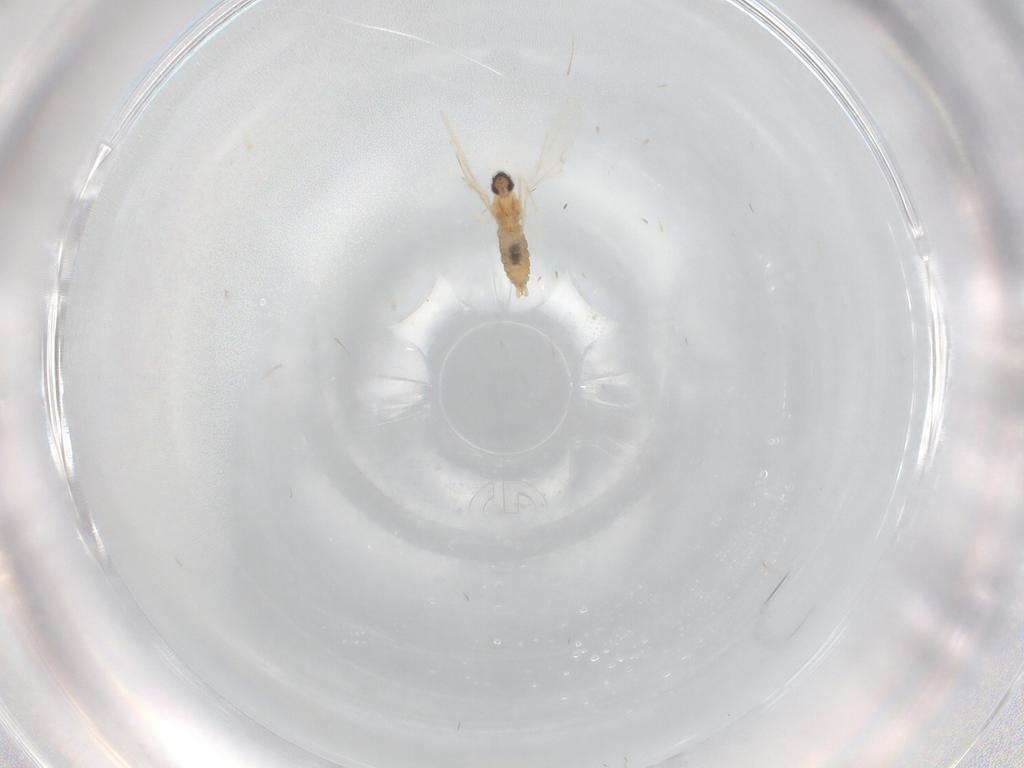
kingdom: Animalia
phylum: Arthropoda
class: Insecta
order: Diptera
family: Cecidomyiidae
